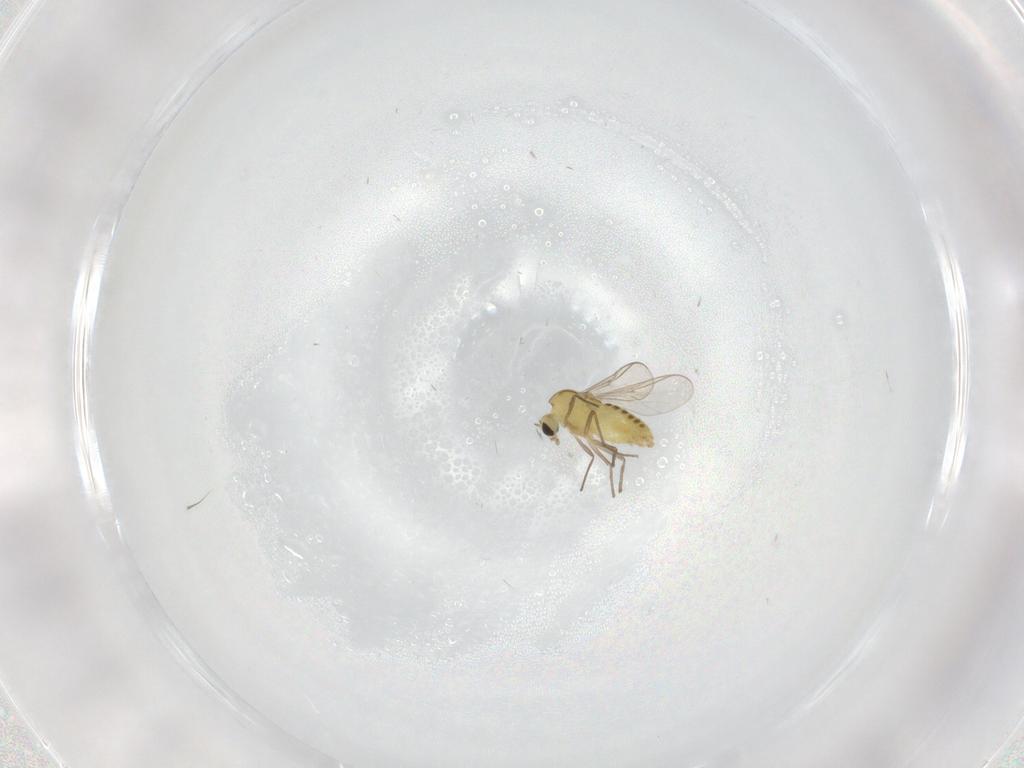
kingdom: Animalia
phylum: Arthropoda
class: Insecta
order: Diptera
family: Chironomidae
